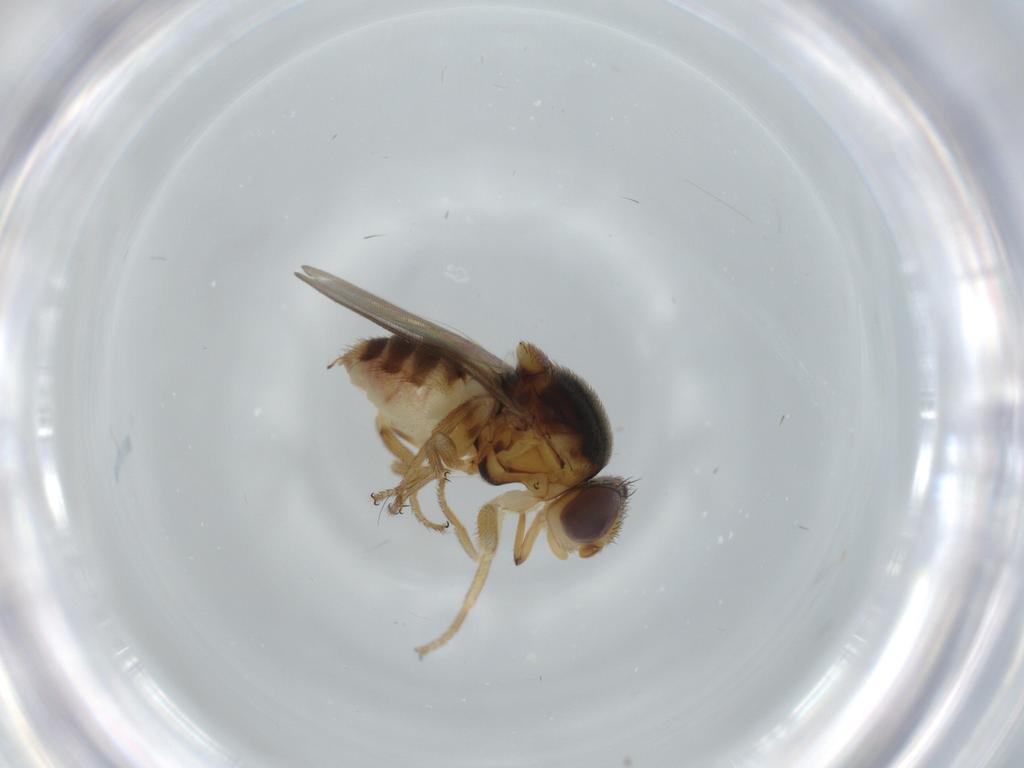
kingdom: Animalia
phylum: Arthropoda
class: Insecta
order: Diptera
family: Chloropidae
